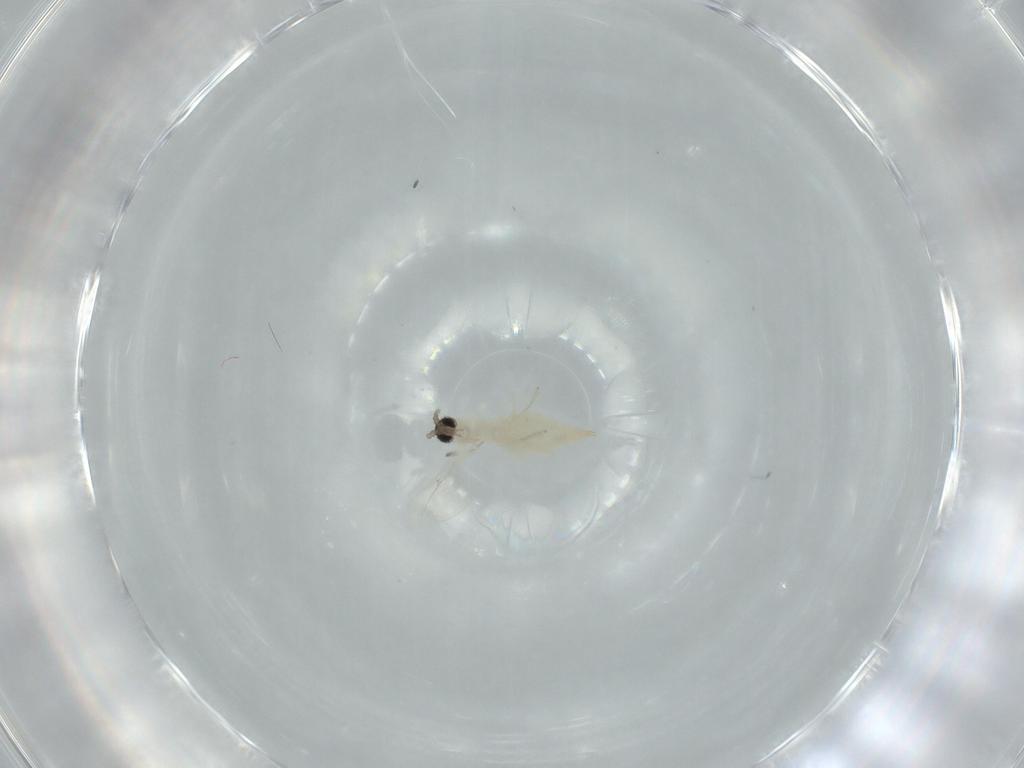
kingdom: Animalia
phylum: Arthropoda
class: Insecta
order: Diptera
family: Cecidomyiidae
